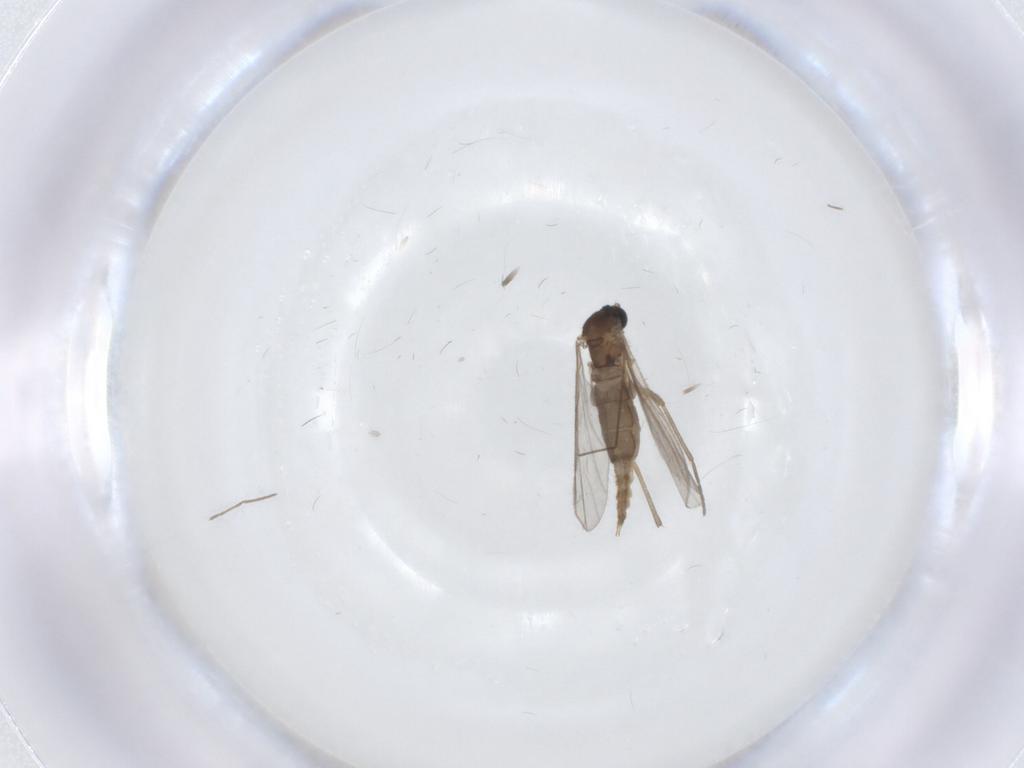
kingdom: Animalia
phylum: Arthropoda
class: Insecta
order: Diptera
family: Sciaridae
